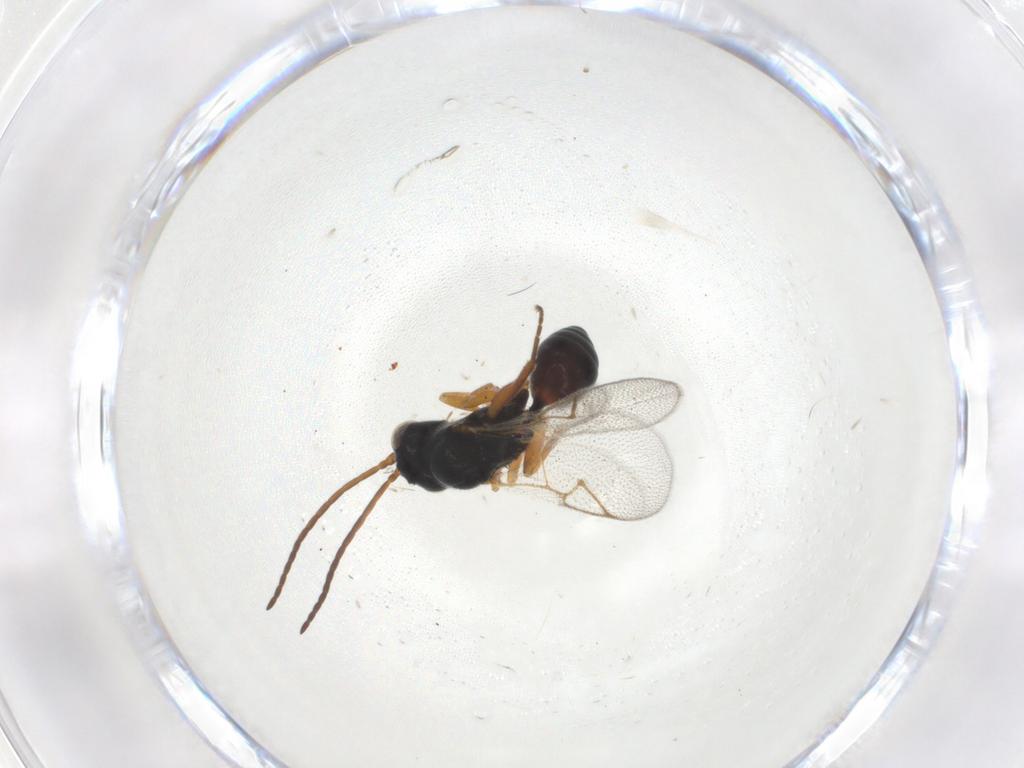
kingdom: Animalia
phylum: Arthropoda
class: Insecta
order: Hymenoptera
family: Figitidae
